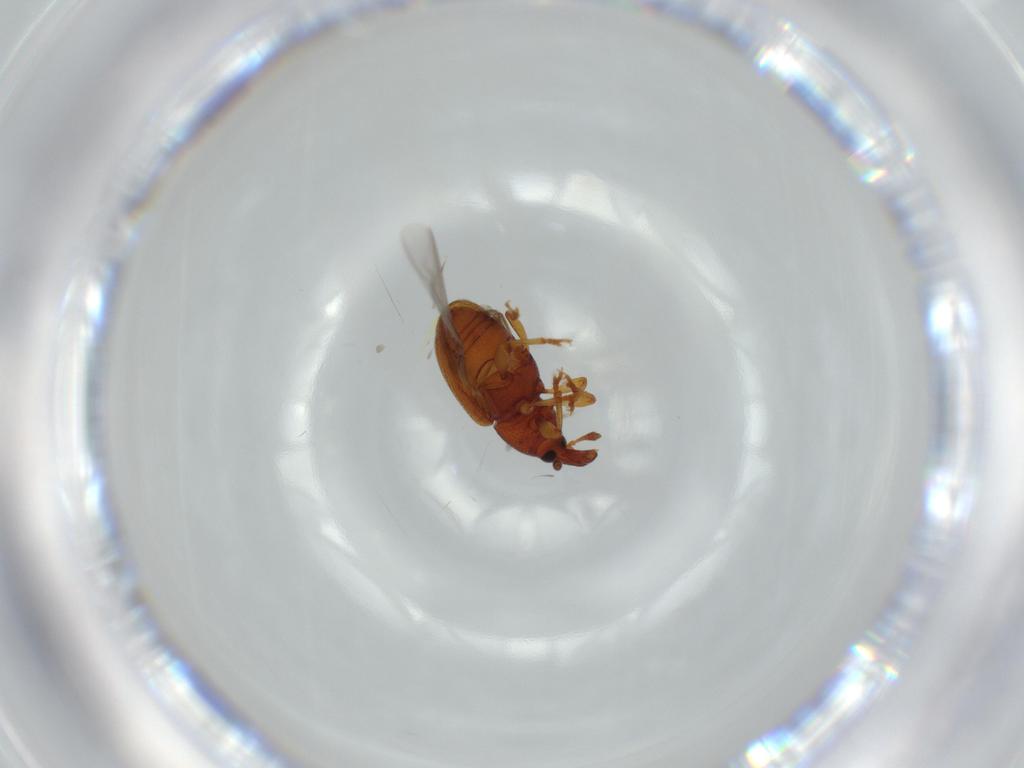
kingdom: Animalia
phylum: Arthropoda
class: Insecta
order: Coleoptera
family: Curculionidae
